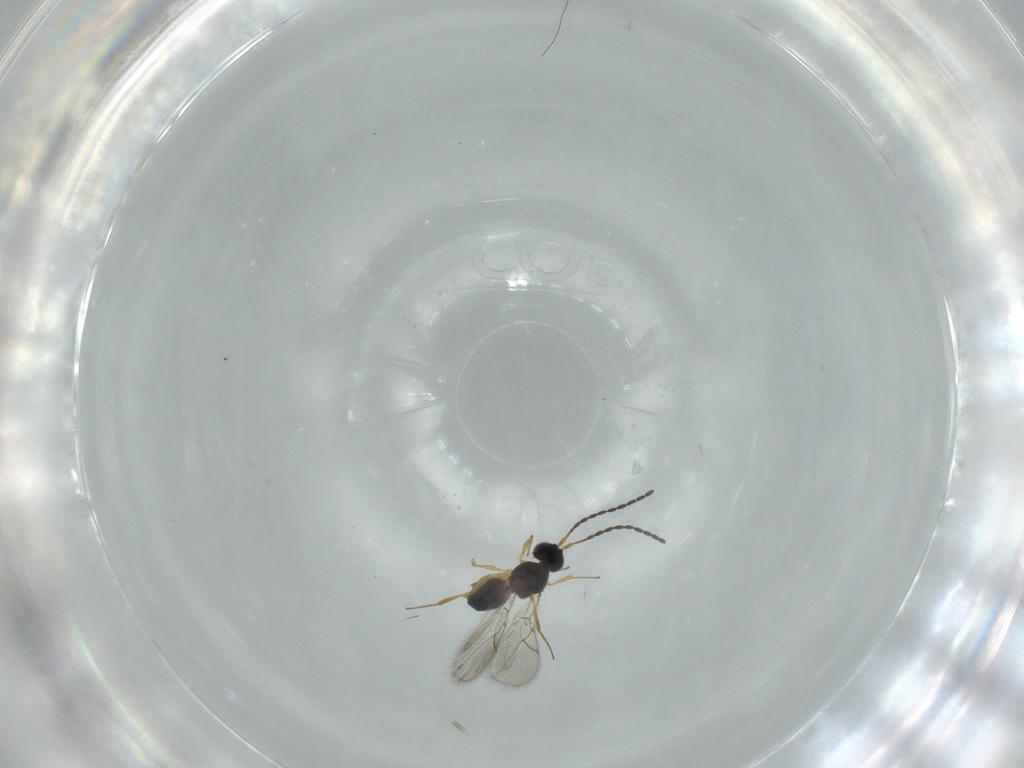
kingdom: Animalia
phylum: Arthropoda
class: Insecta
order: Hymenoptera
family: Figitidae
